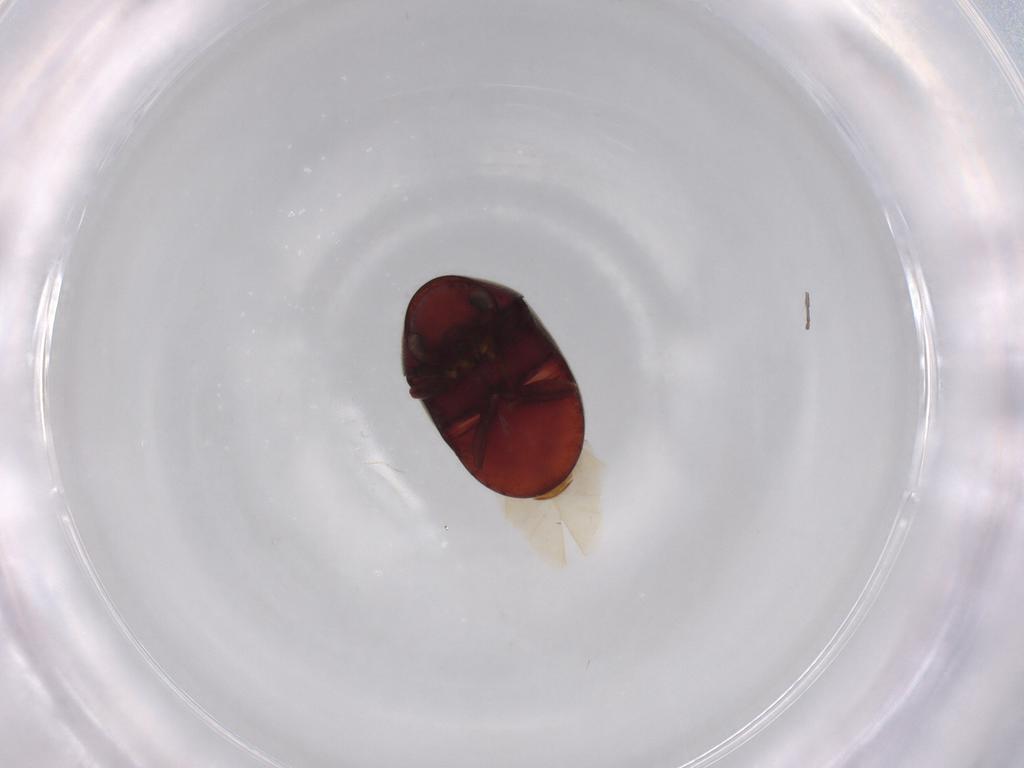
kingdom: Animalia
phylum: Arthropoda
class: Insecta
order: Coleoptera
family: Ptinidae
